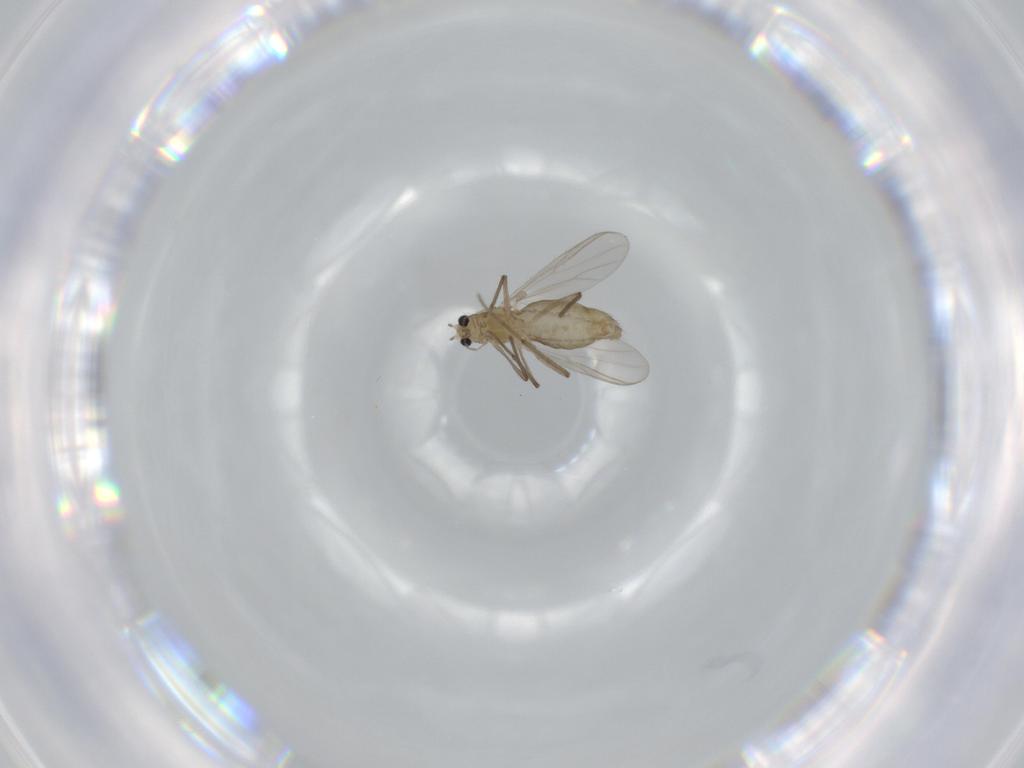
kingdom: Animalia
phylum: Arthropoda
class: Insecta
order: Diptera
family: Chironomidae
